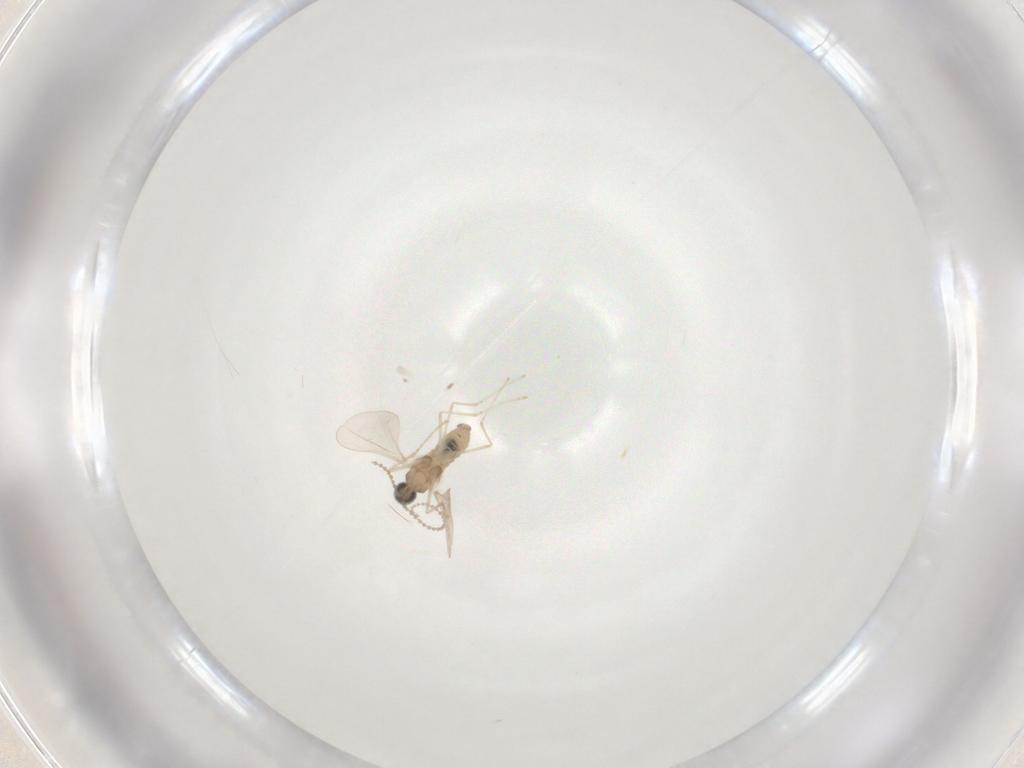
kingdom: Animalia
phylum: Arthropoda
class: Insecta
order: Diptera
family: Cecidomyiidae
